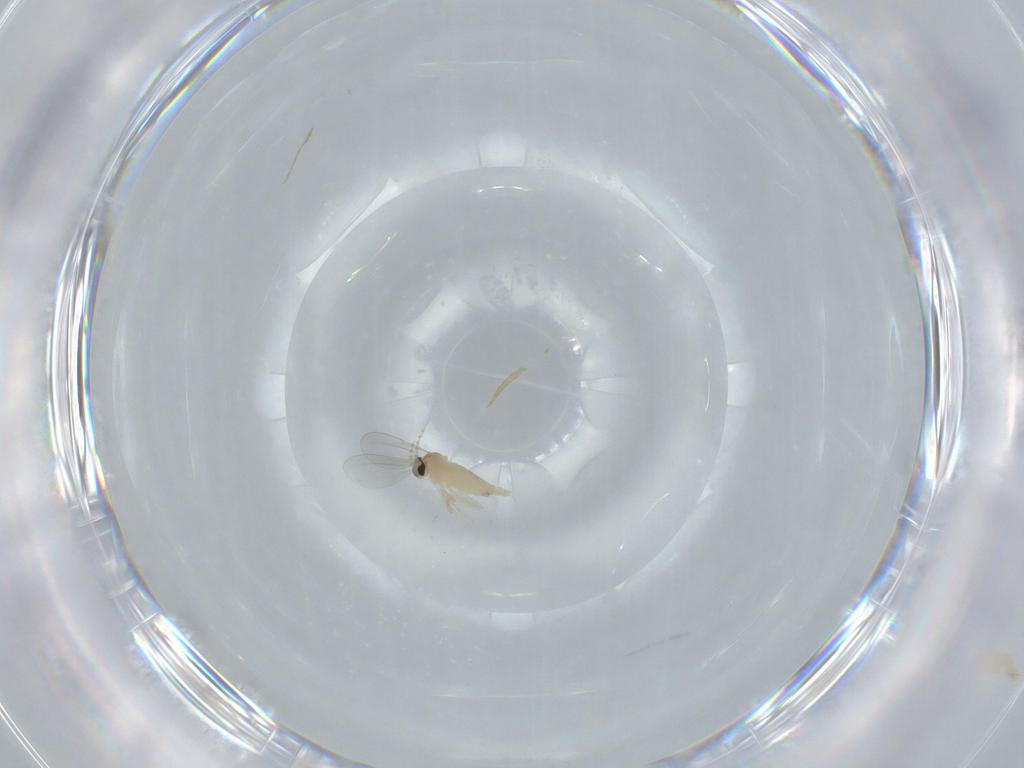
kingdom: Animalia
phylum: Arthropoda
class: Insecta
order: Diptera
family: Cecidomyiidae
